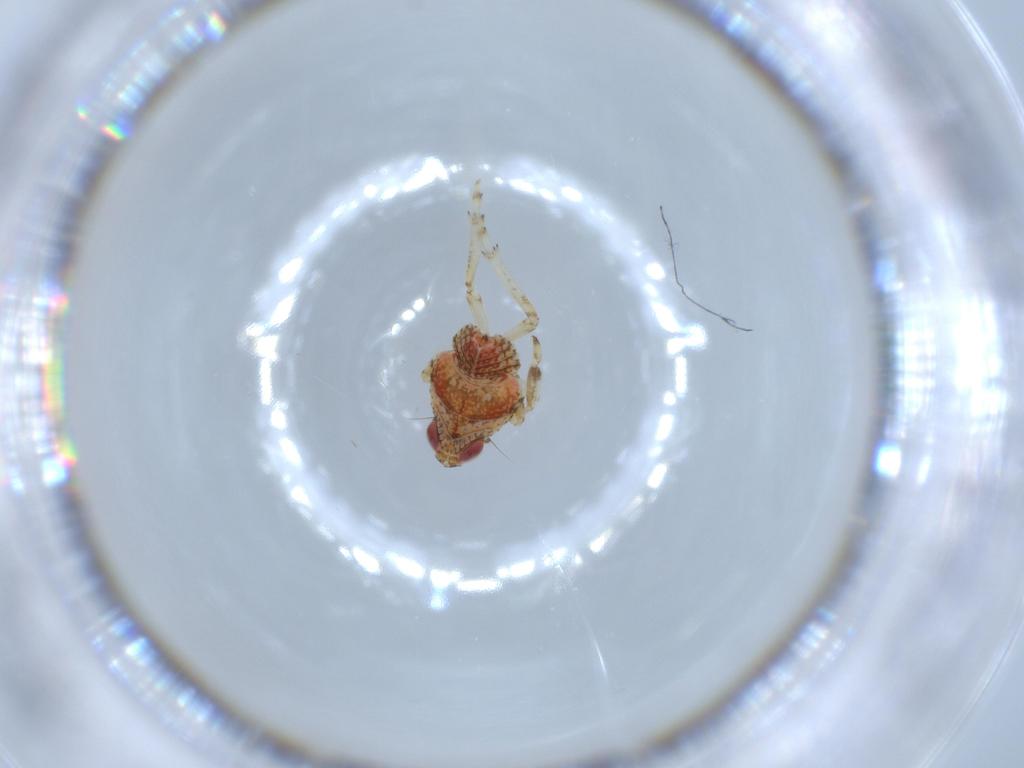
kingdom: Animalia
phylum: Arthropoda
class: Insecta
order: Hemiptera
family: Issidae
